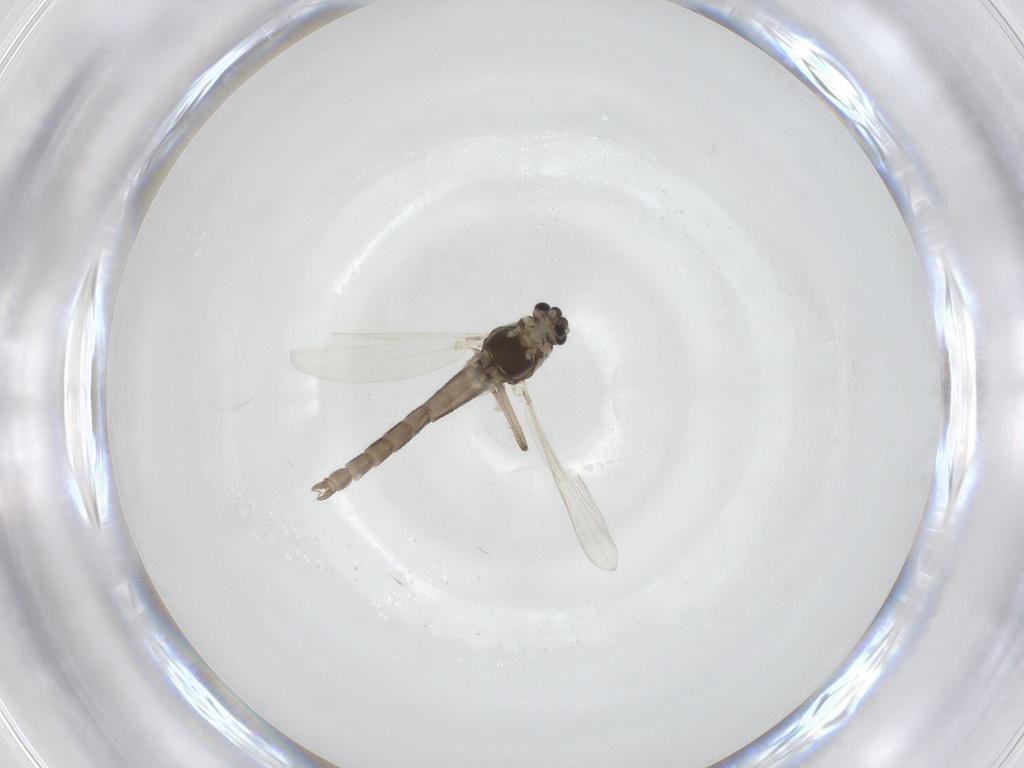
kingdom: Animalia
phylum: Arthropoda
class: Insecta
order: Diptera
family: Chironomidae
